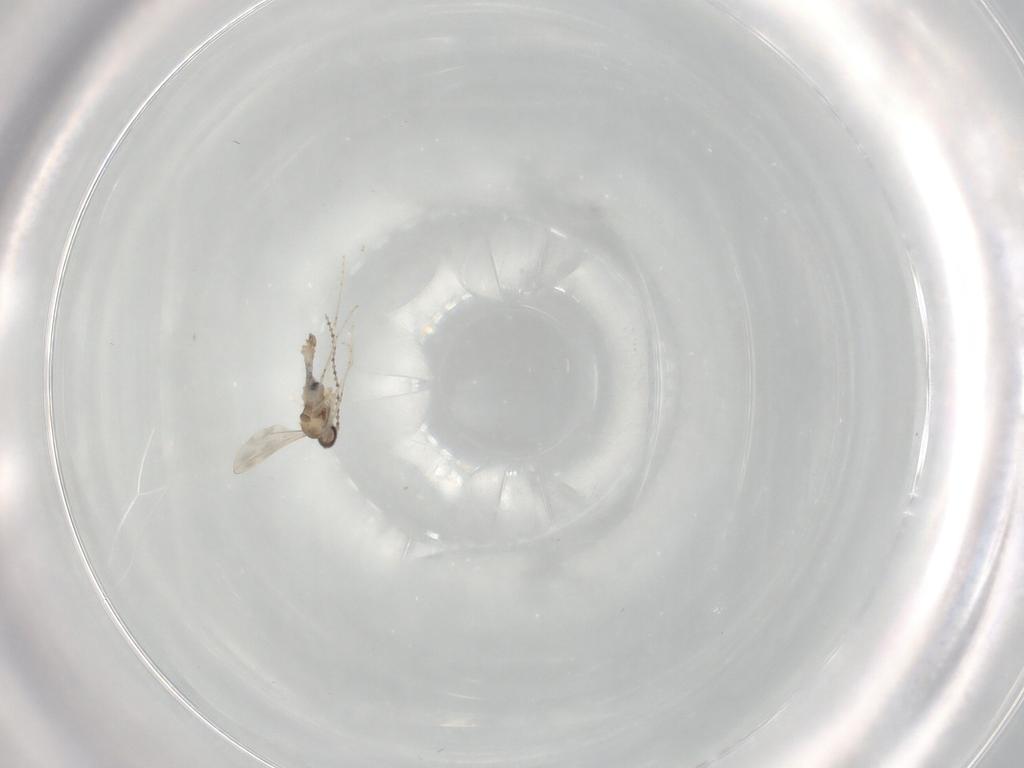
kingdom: Animalia
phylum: Arthropoda
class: Insecta
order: Diptera
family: Cecidomyiidae
